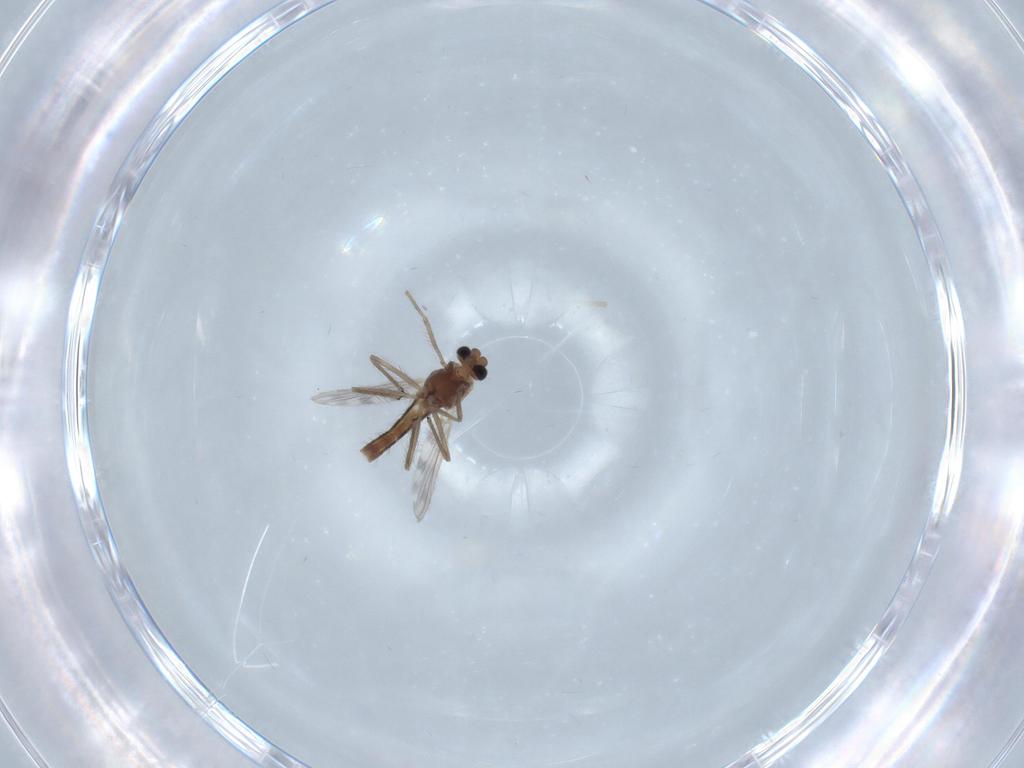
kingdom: Animalia
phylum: Arthropoda
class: Insecta
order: Diptera
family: Chironomidae
